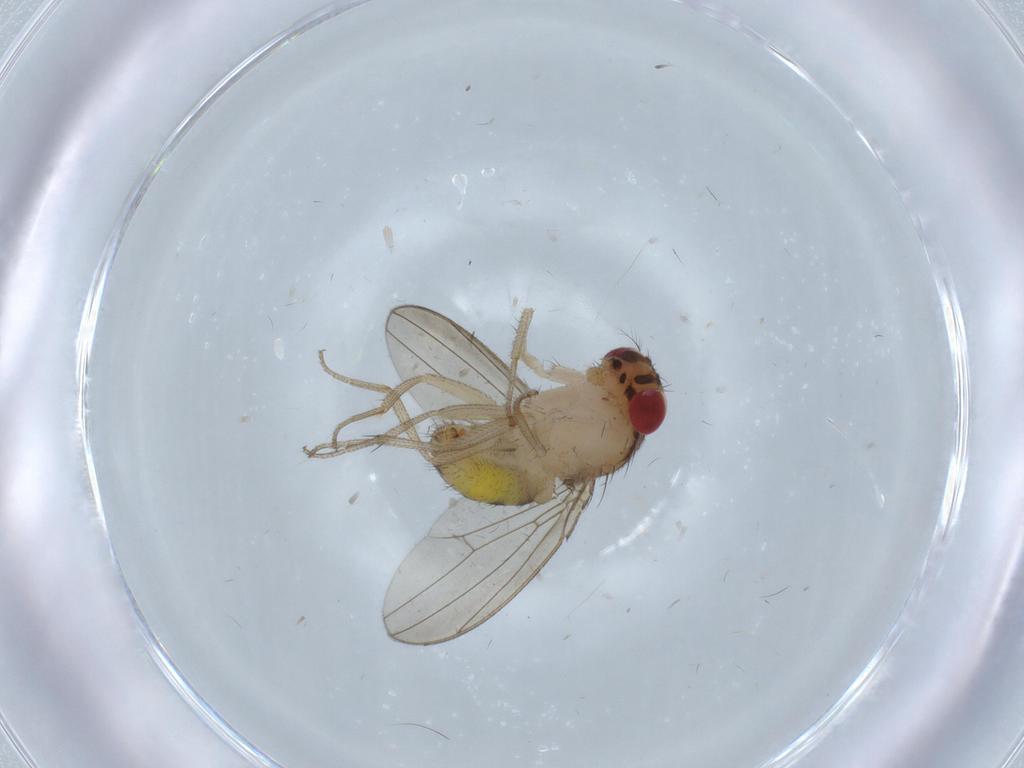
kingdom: Animalia
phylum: Arthropoda
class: Insecta
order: Diptera
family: Drosophilidae
